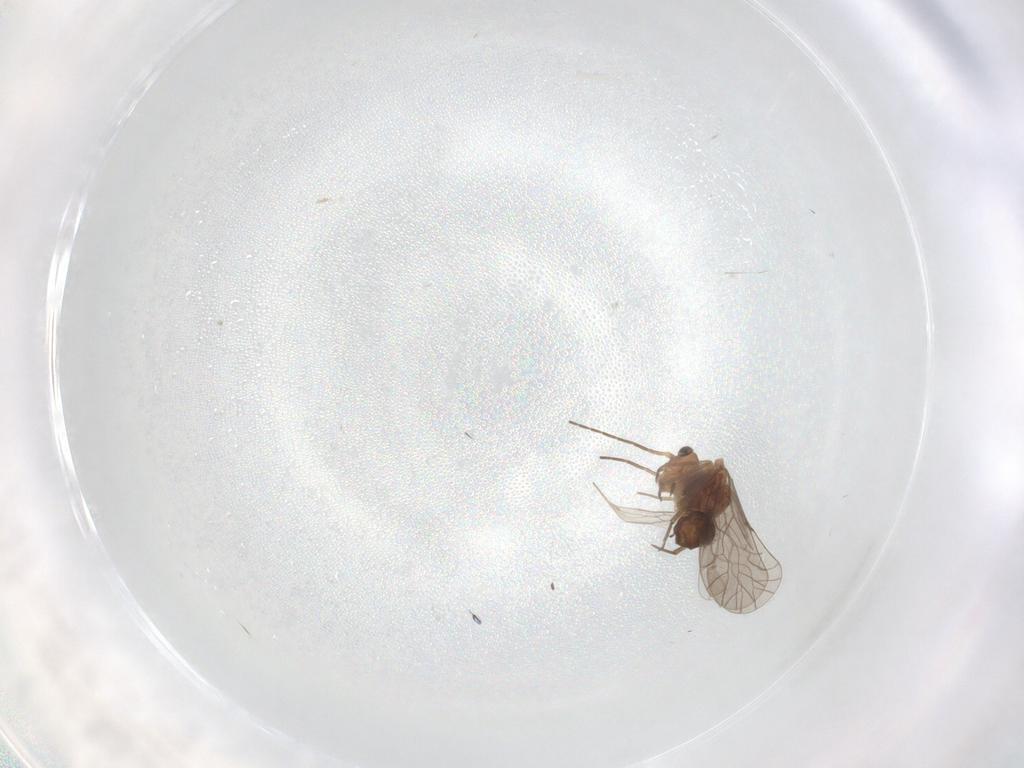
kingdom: Animalia
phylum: Arthropoda
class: Insecta
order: Psocodea
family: Lachesillidae
